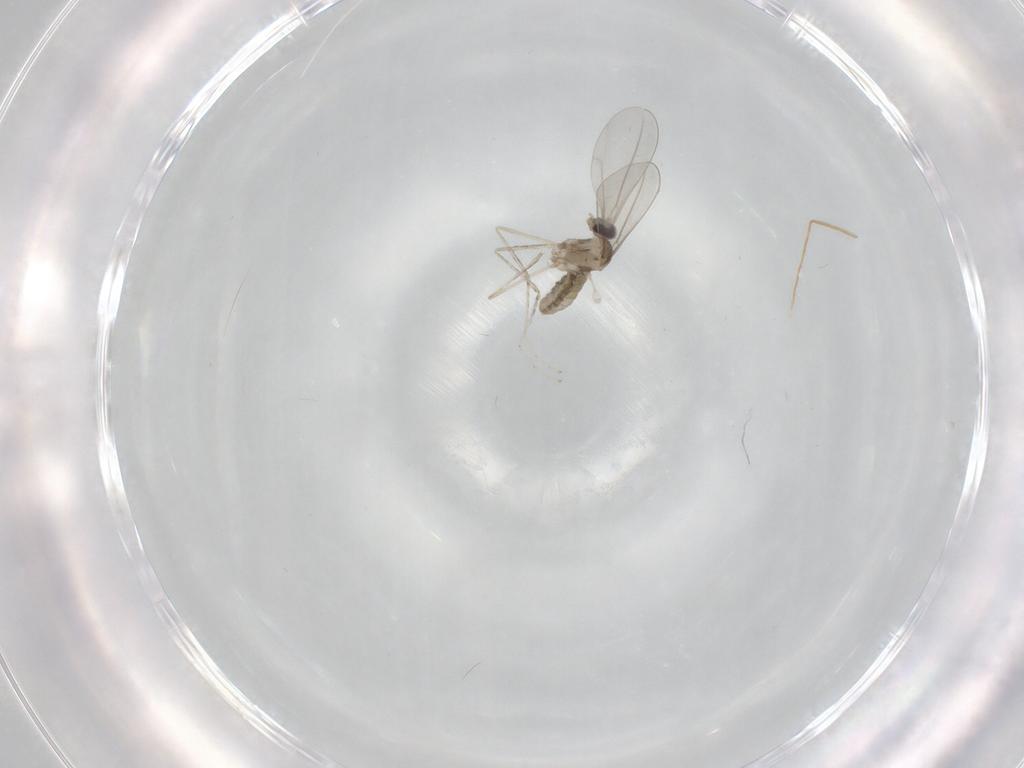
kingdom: Animalia
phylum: Arthropoda
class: Insecta
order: Diptera
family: Cecidomyiidae
